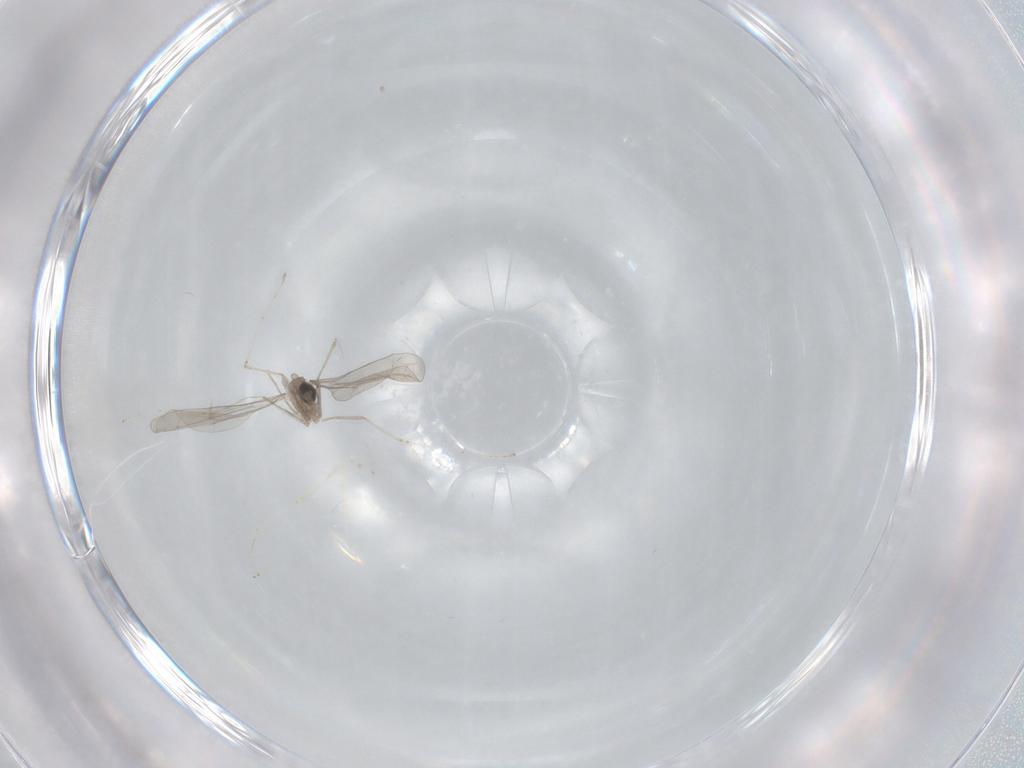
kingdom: Animalia
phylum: Arthropoda
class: Insecta
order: Diptera
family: Cecidomyiidae
